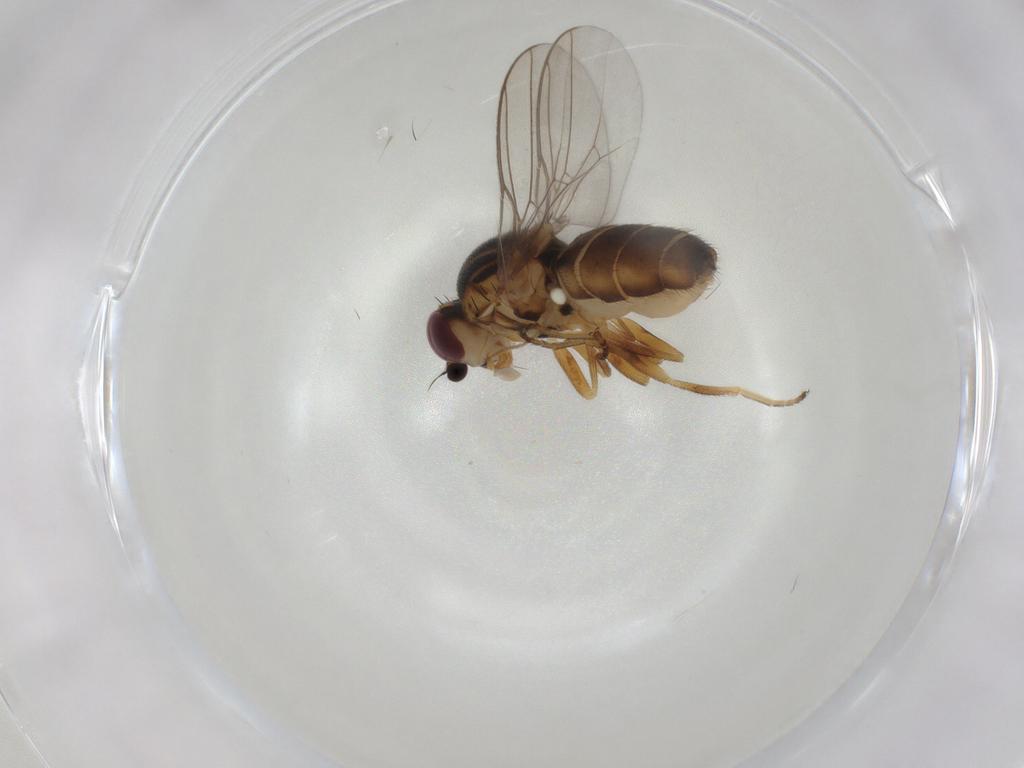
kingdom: Animalia
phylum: Arthropoda
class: Insecta
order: Diptera
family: Chloropidae
